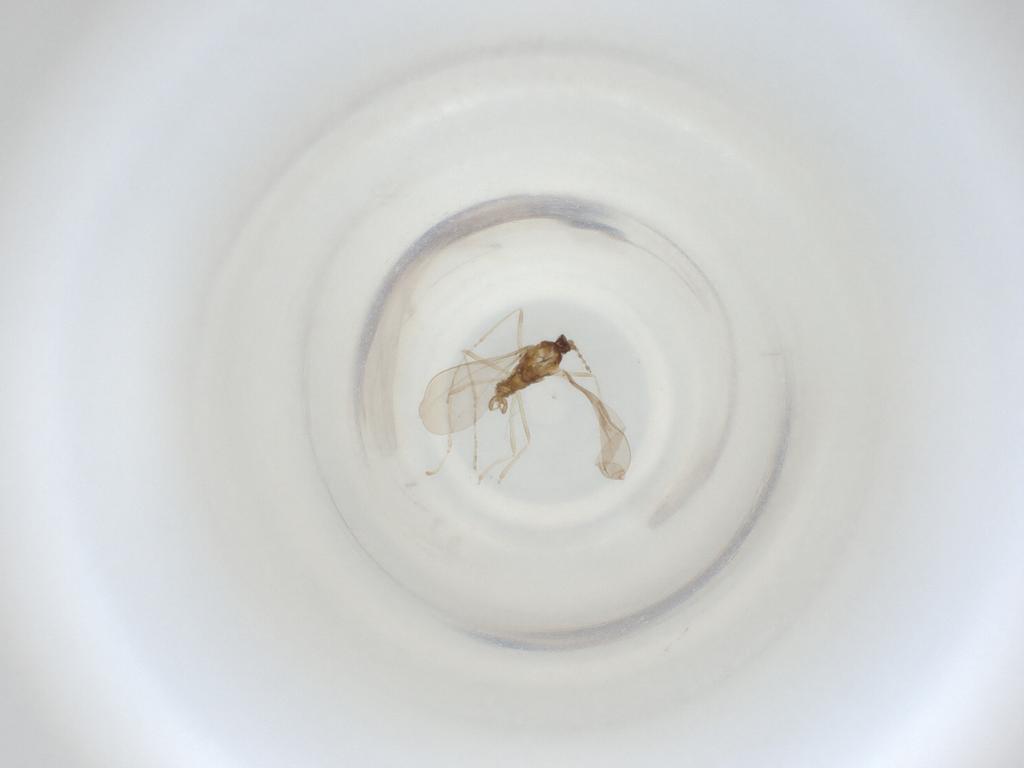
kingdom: Animalia
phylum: Arthropoda
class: Insecta
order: Diptera
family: Cecidomyiidae
